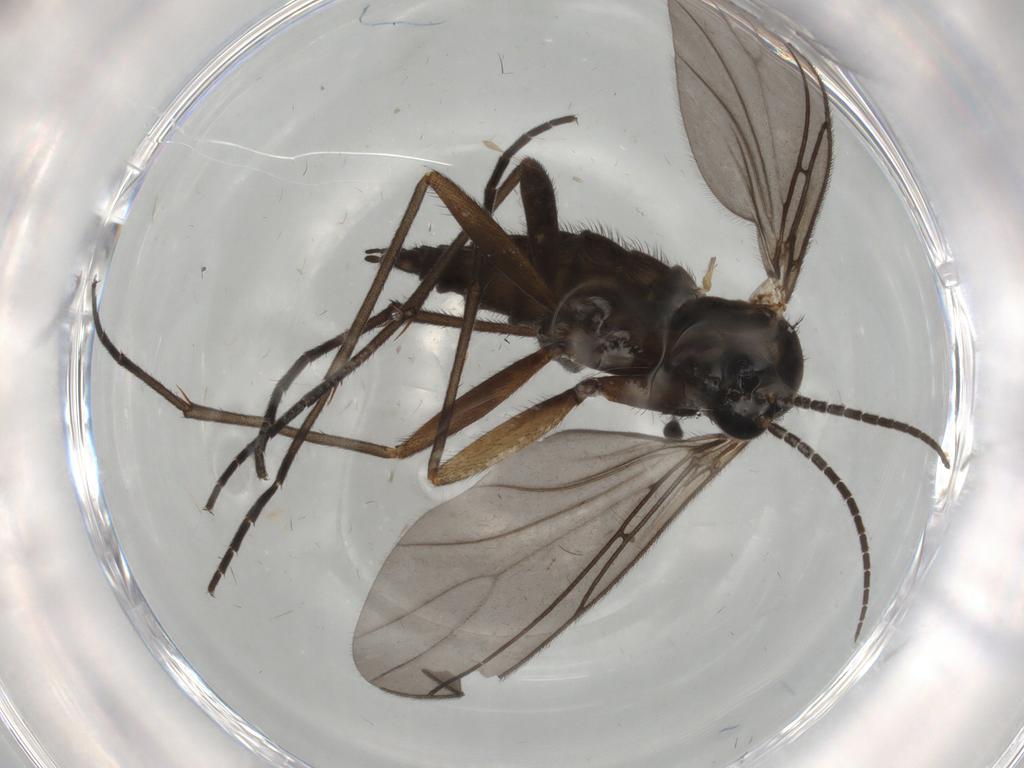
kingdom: Animalia
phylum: Arthropoda
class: Insecta
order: Diptera
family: Sciaridae
